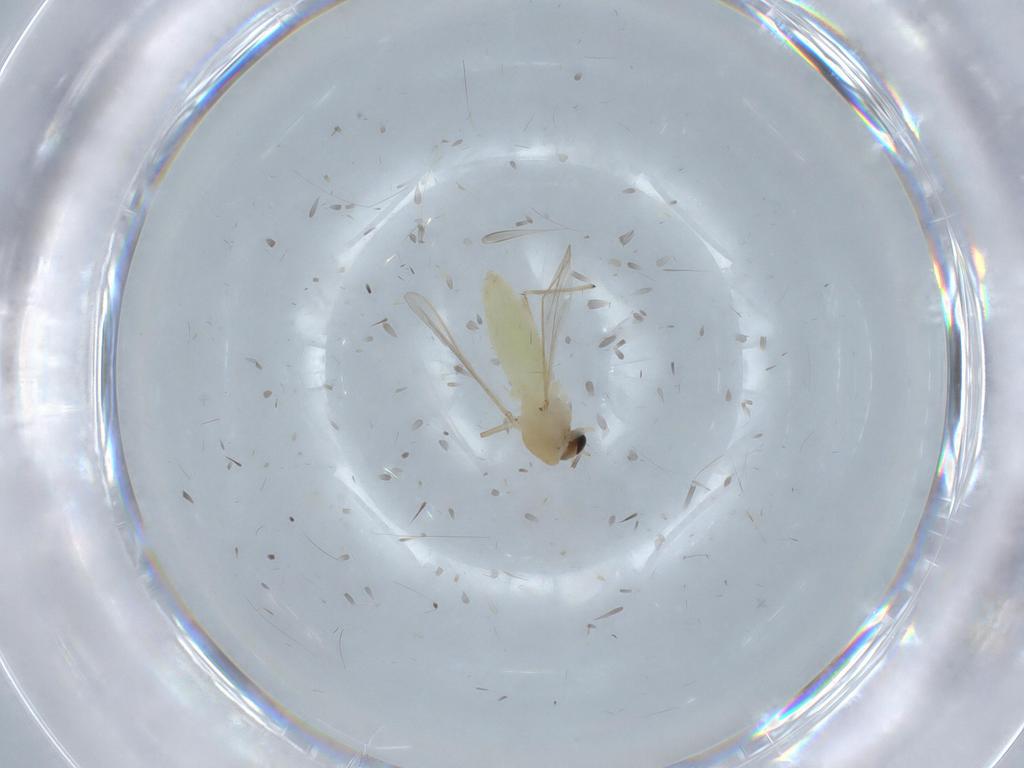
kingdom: Animalia
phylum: Arthropoda
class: Insecta
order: Diptera
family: Chironomidae
